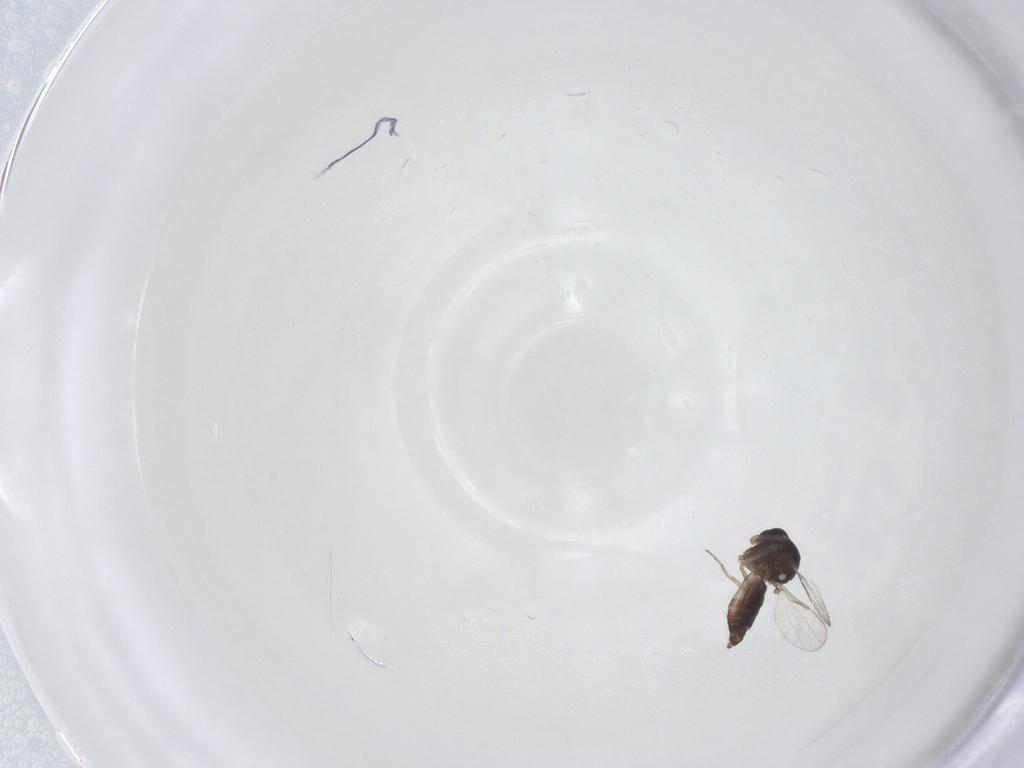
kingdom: Animalia
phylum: Arthropoda
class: Insecta
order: Diptera
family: Ceratopogonidae
